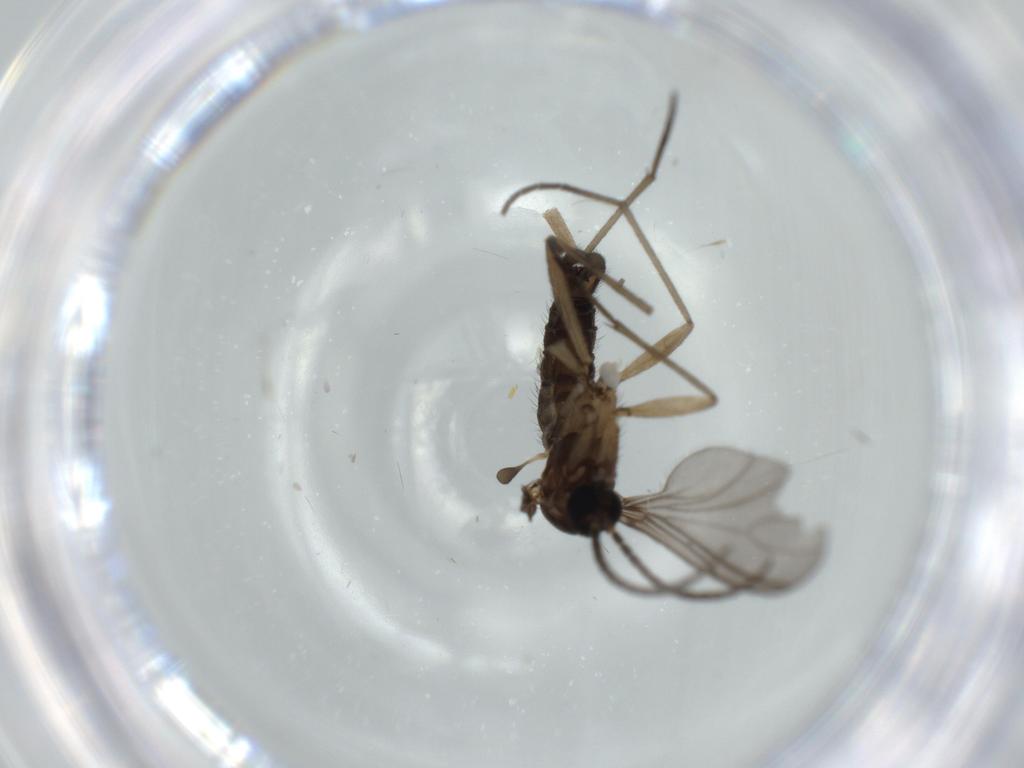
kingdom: Animalia
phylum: Arthropoda
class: Insecta
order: Diptera
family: Sciaridae
